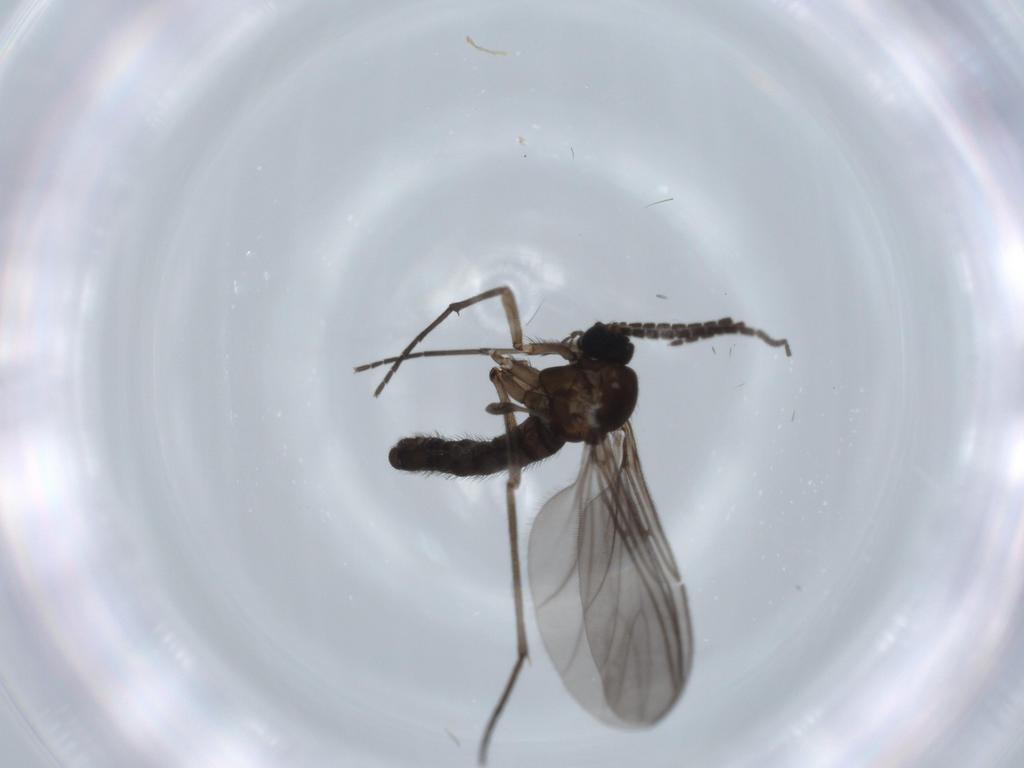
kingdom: Animalia
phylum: Arthropoda
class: Insecta
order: Diptera
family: Sciaridae
